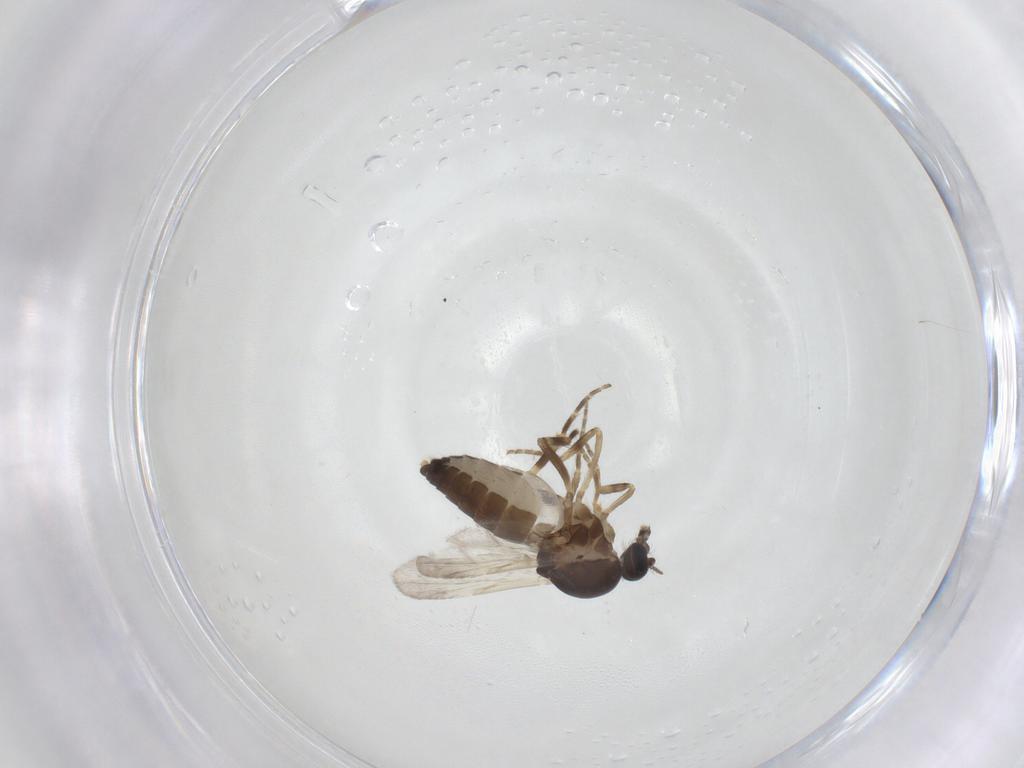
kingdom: Animalia
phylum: Arthropoda
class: Insecta
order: Diptera
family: Ceratopogonidae
